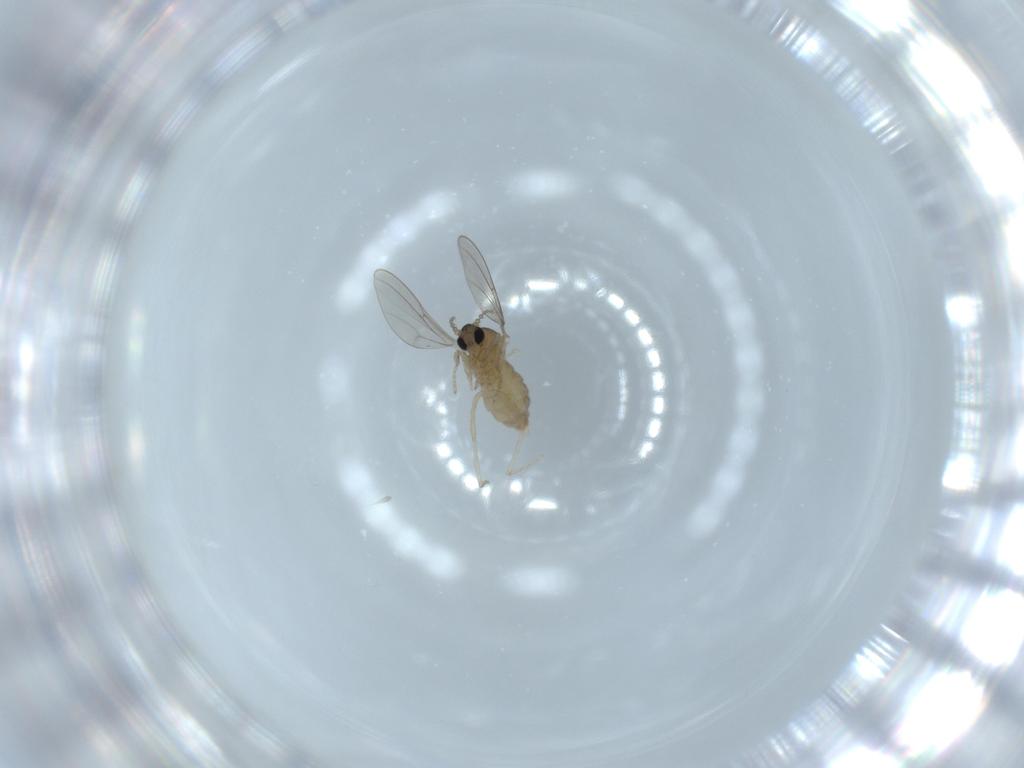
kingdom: Animalia
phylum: Arthropoda
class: Insecta
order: Diptera
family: Cecidomyiidae
